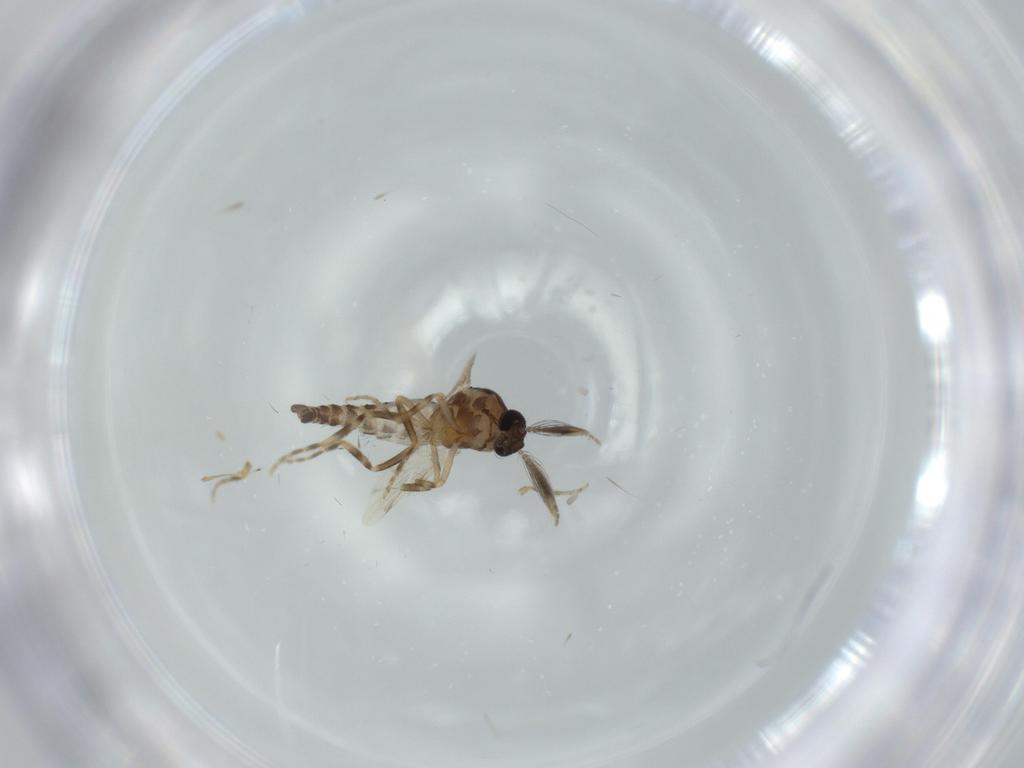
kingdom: Animalia
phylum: Arthropoda
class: Insecta
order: Diptera
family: Ceratopogonidae
